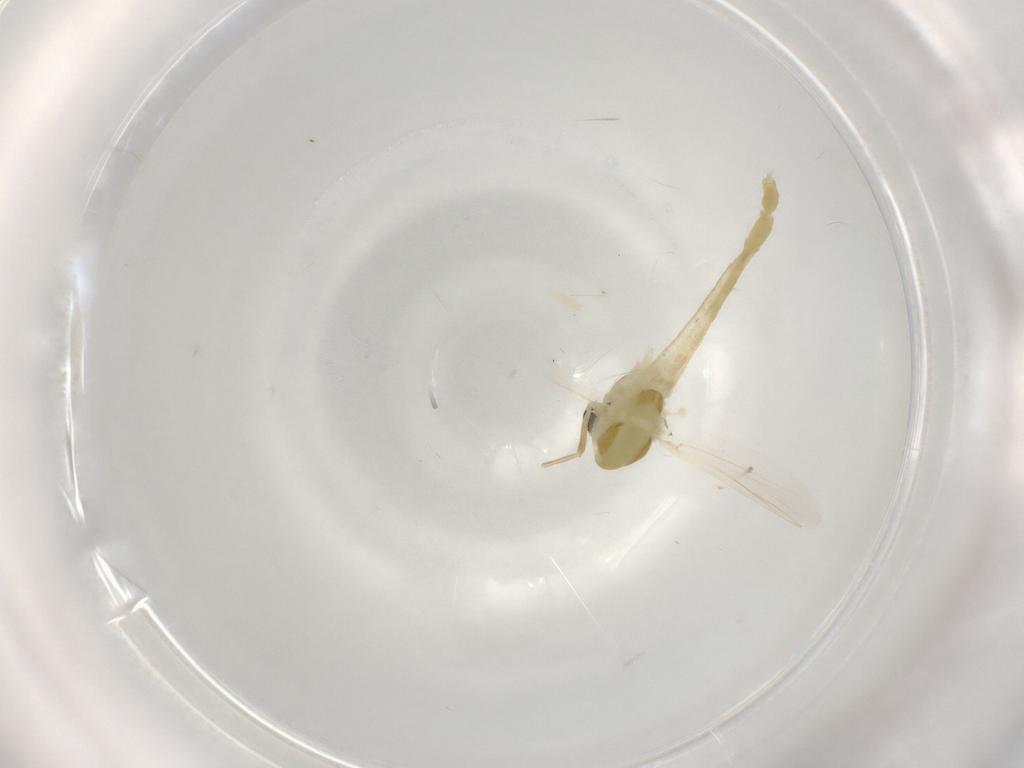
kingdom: Animalia
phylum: Arthropoda
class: Insecta
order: Diptera
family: Chironomidae
